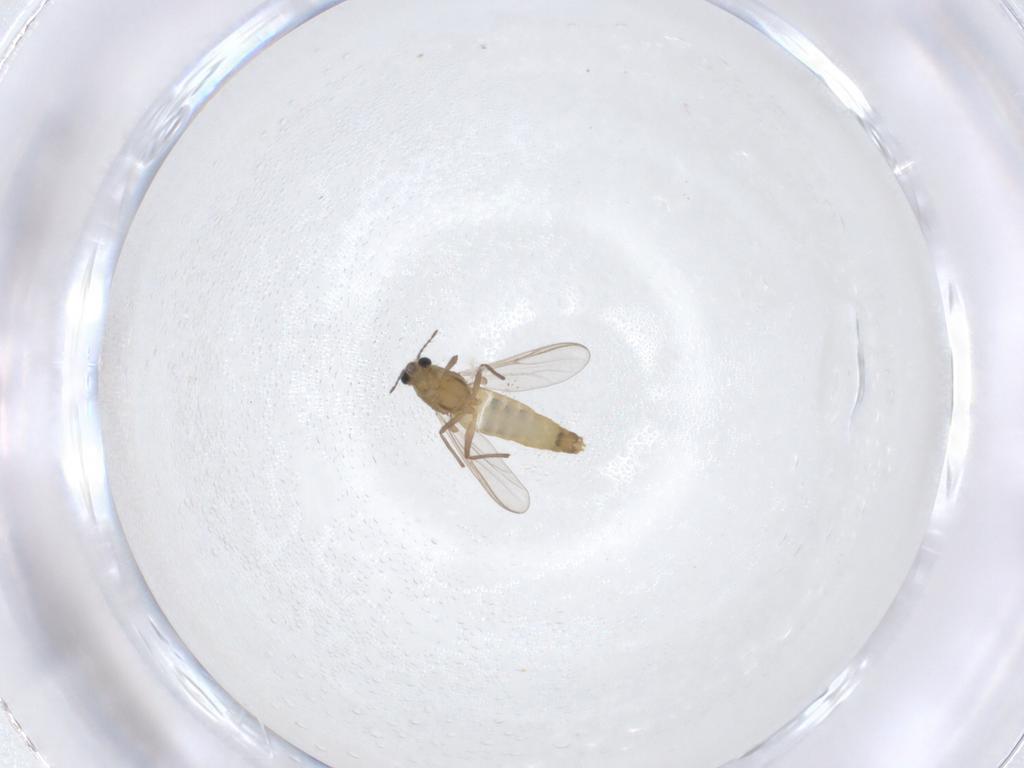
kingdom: Animalia
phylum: Arthropoda
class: Insecta
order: Diptera
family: Chironomidae
